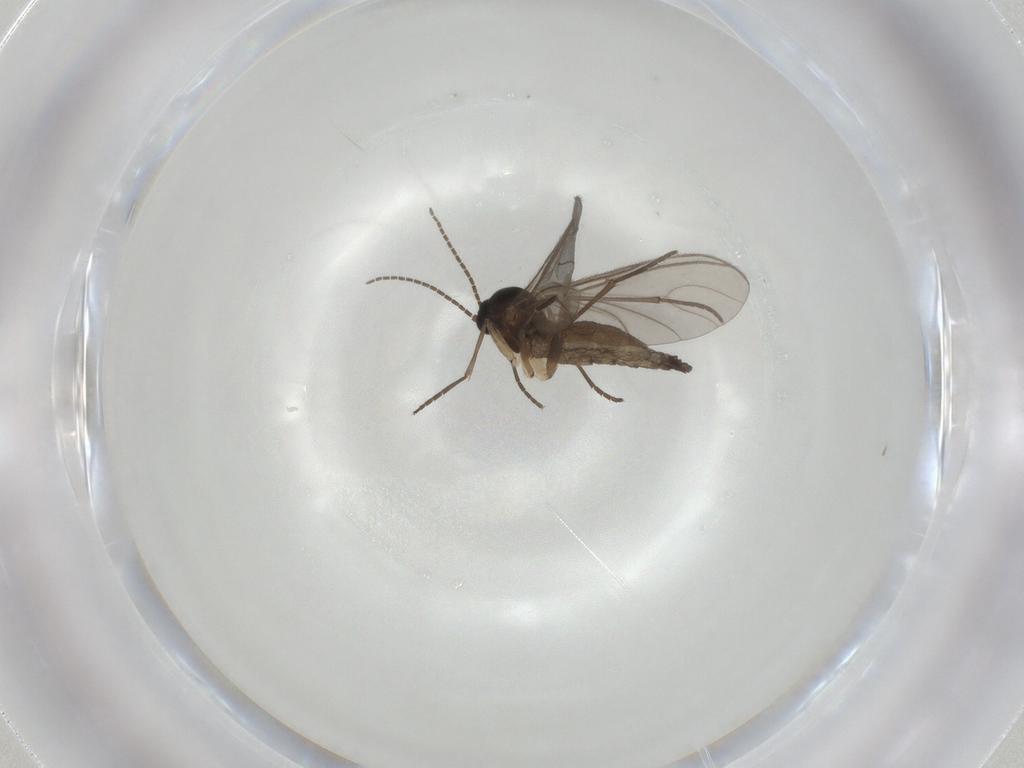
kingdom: Animalia
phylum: Arthropoda
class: Insecta
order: Diptera
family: Sciaridae
